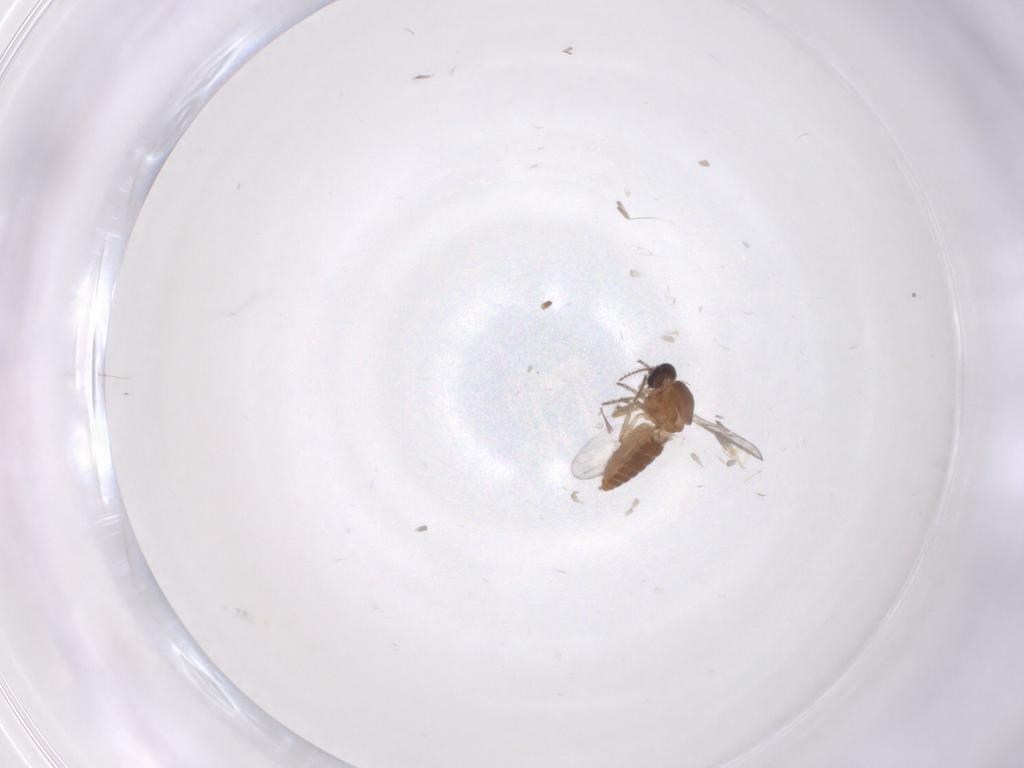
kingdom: Animalia
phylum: Arthropoda
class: Insecta
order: Diptera
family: Ceratopogonidae
